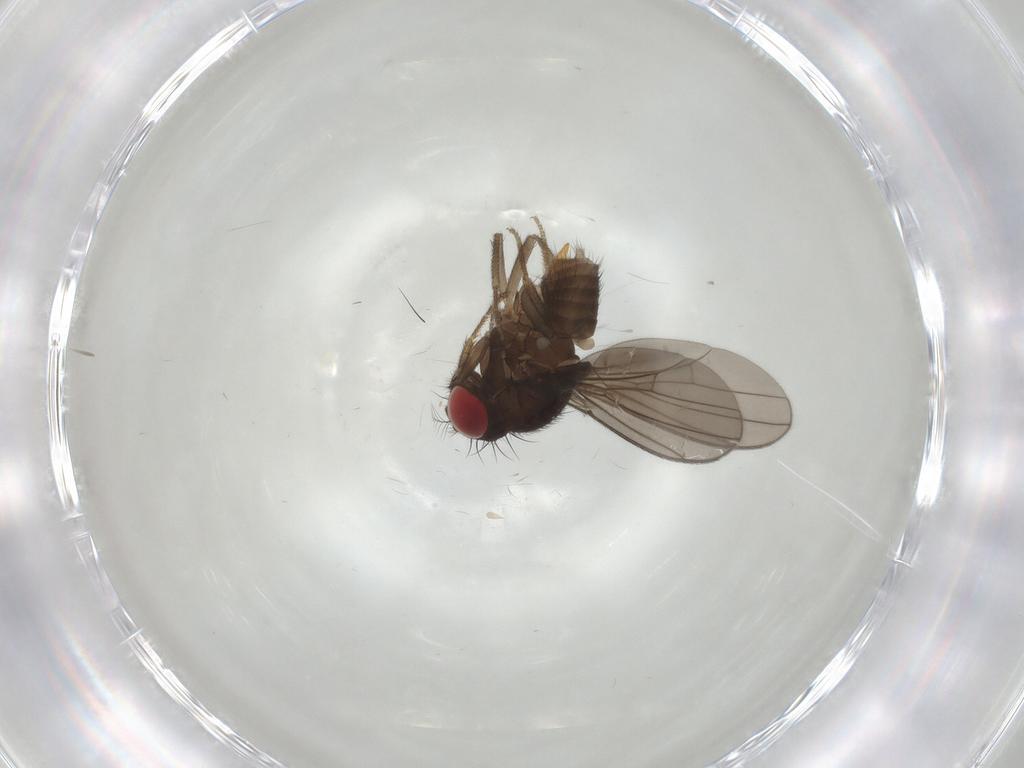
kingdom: Animalia
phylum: Arthropoda
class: Insecta
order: Diptera
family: Drosophilidae
